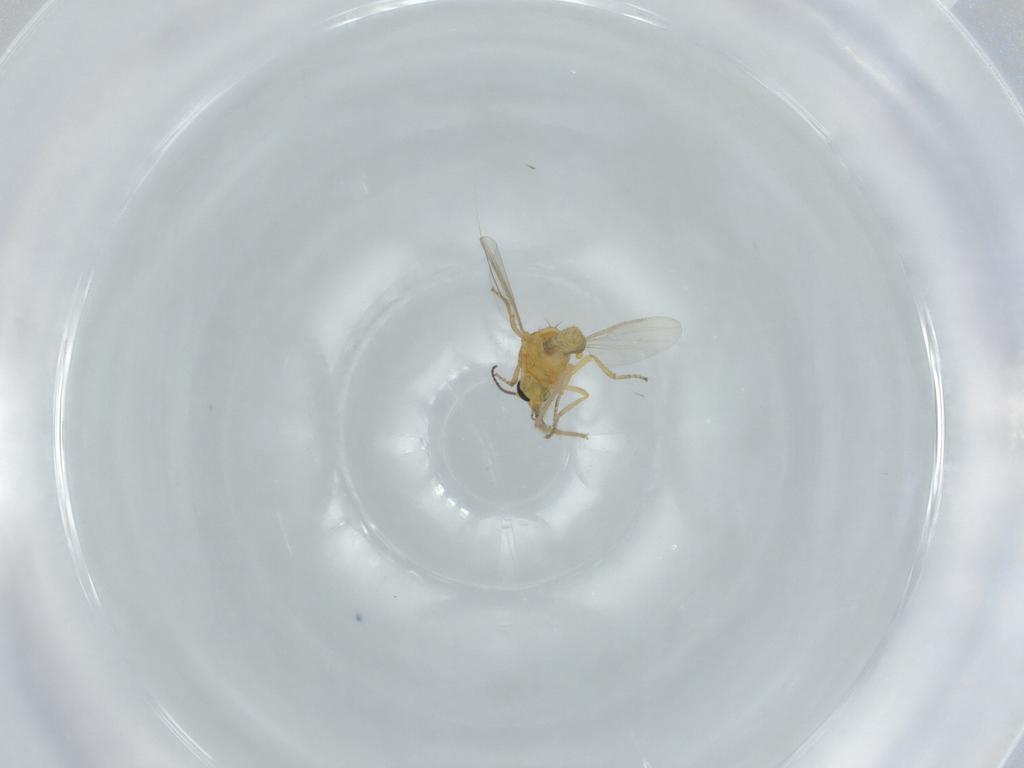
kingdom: Animalia
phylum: Arthropoda
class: Insecta
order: Diptera
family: Ceratopogonidae
